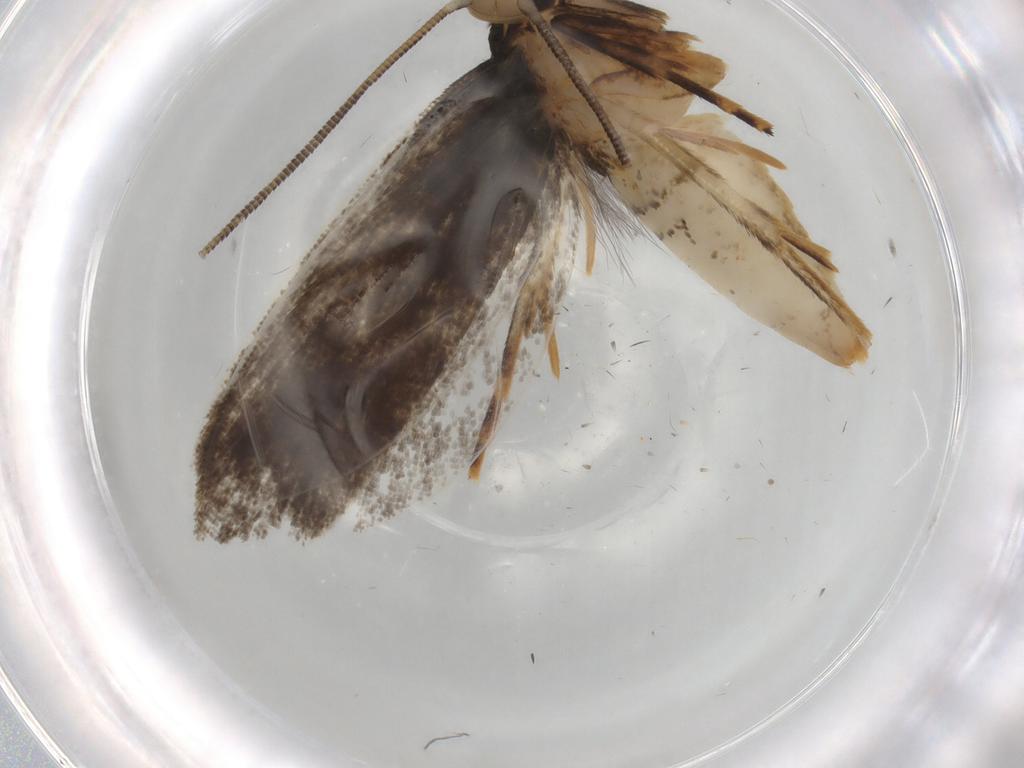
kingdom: Animalia
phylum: Arthropoda
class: Insecta
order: Lepidoptera
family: Tineidae
